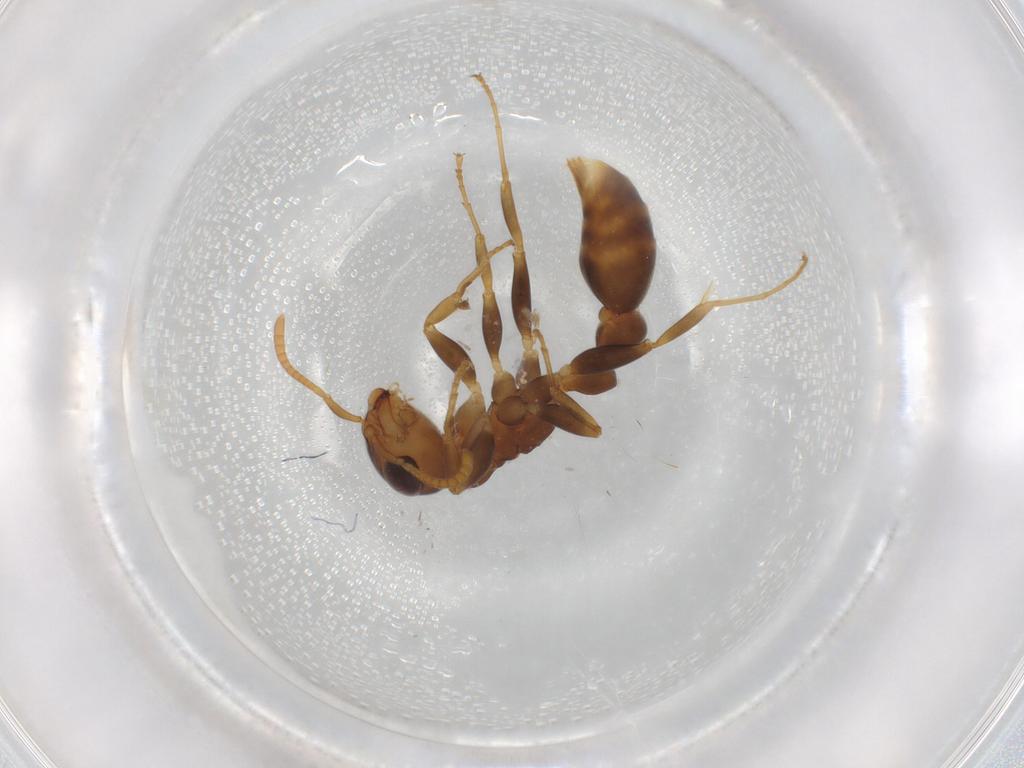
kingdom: Animalia
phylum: Arthropoda
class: Insecta
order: Hymenoptera
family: Formicidae
